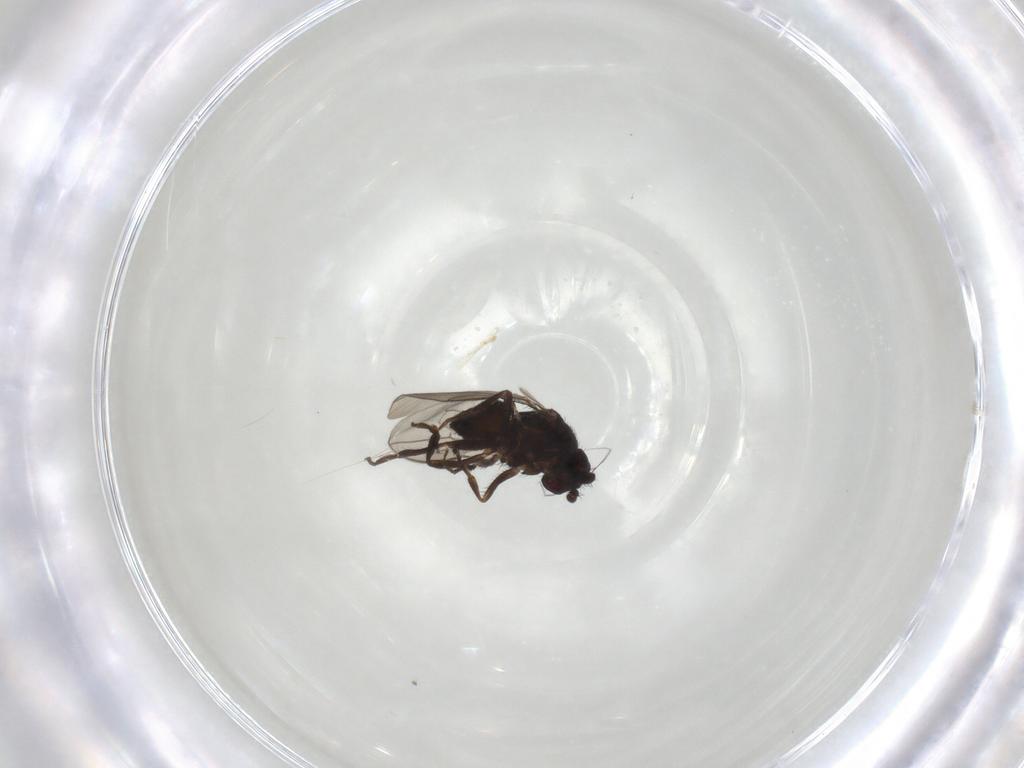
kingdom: Animalia
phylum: Arthropoda
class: Insecta
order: Diptera
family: Sphaeroceridae
